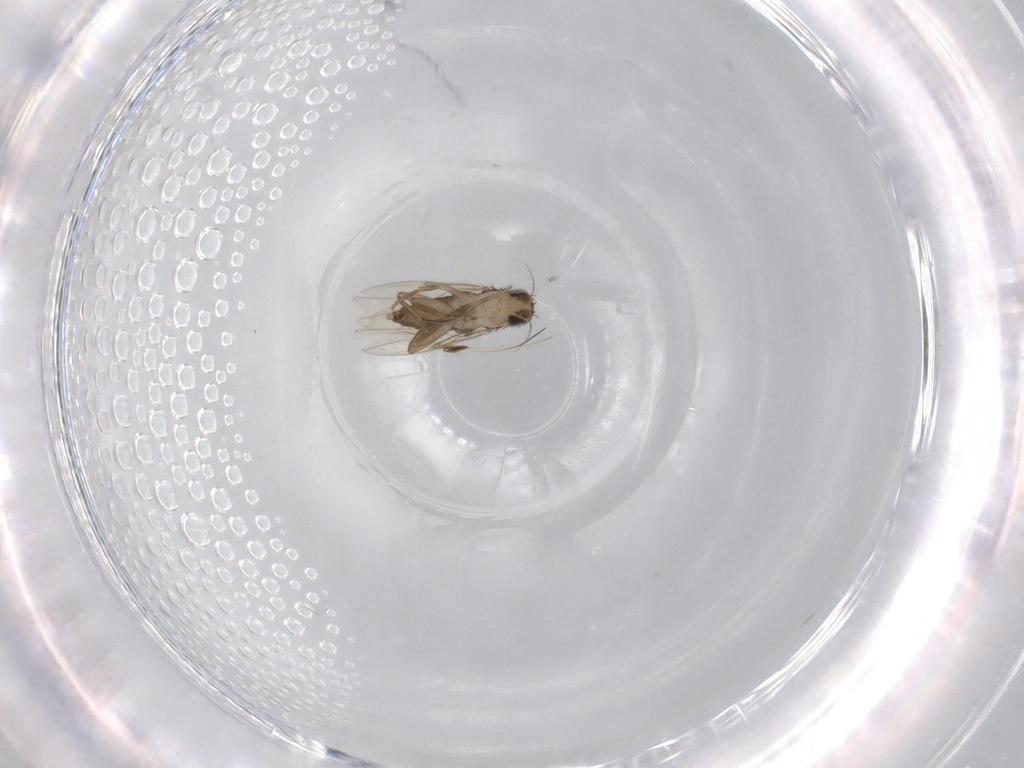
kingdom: Animalia
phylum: Arthropoda
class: Insecta
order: Diptera
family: Phoridae
